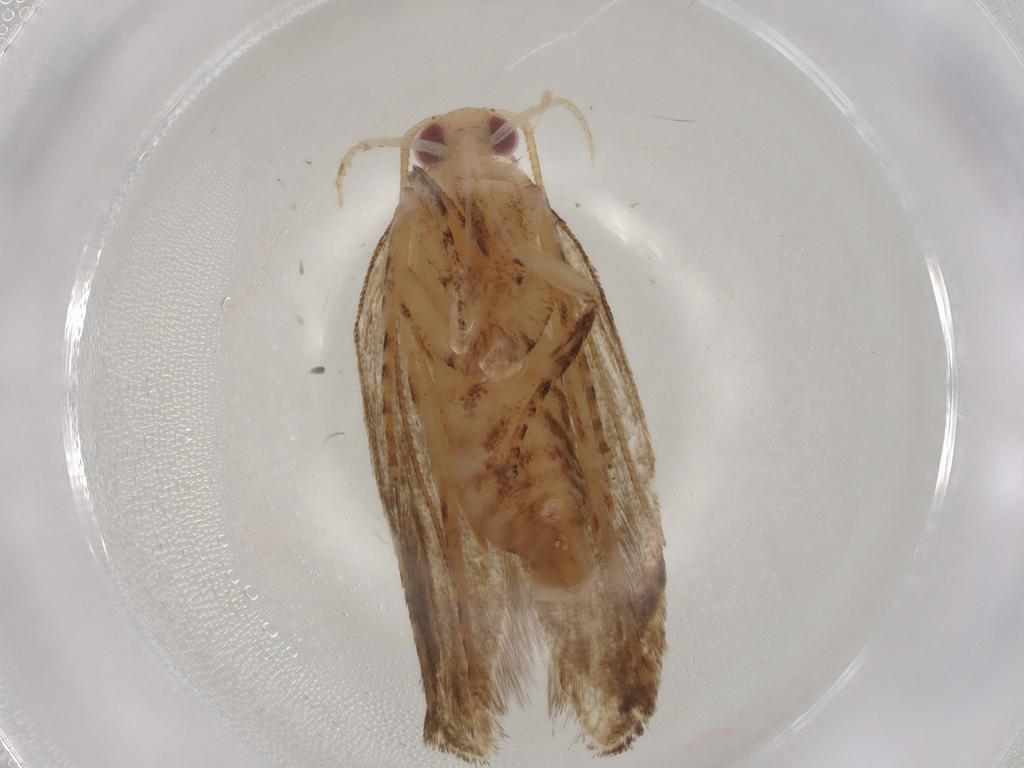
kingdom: Animalia
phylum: Arthropoda
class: Insecta
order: Lepidoptera
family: Depressariidae
